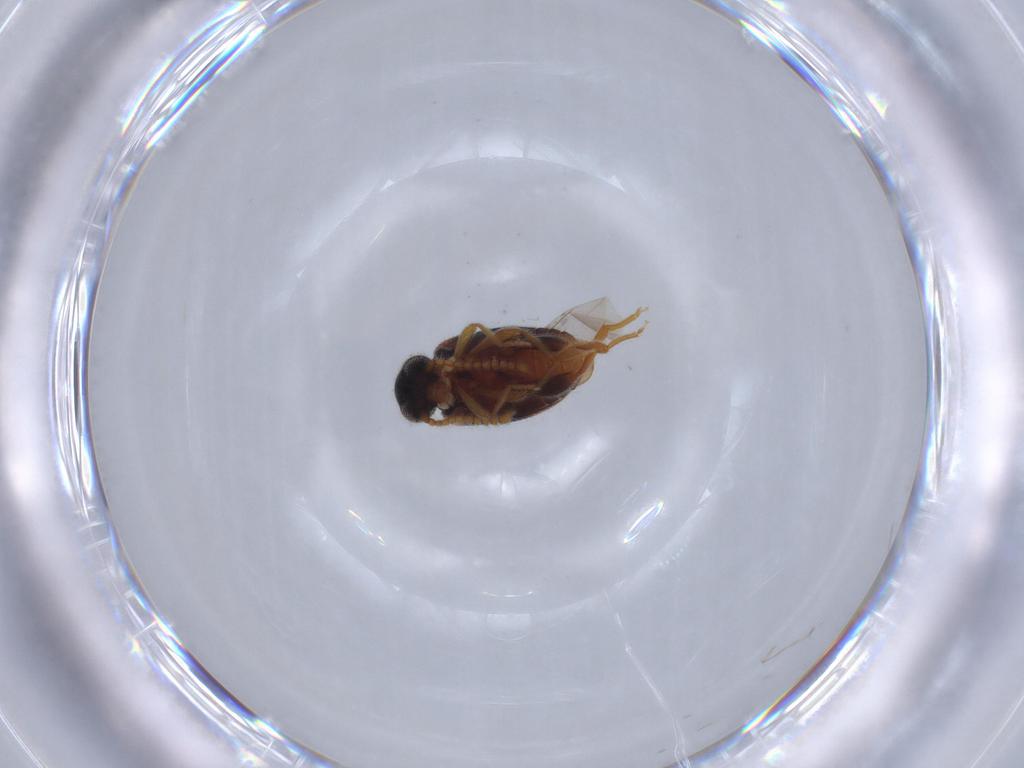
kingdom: Animalia
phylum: Arthropoda
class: Insecta
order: Coleoptera
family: Aderidae
